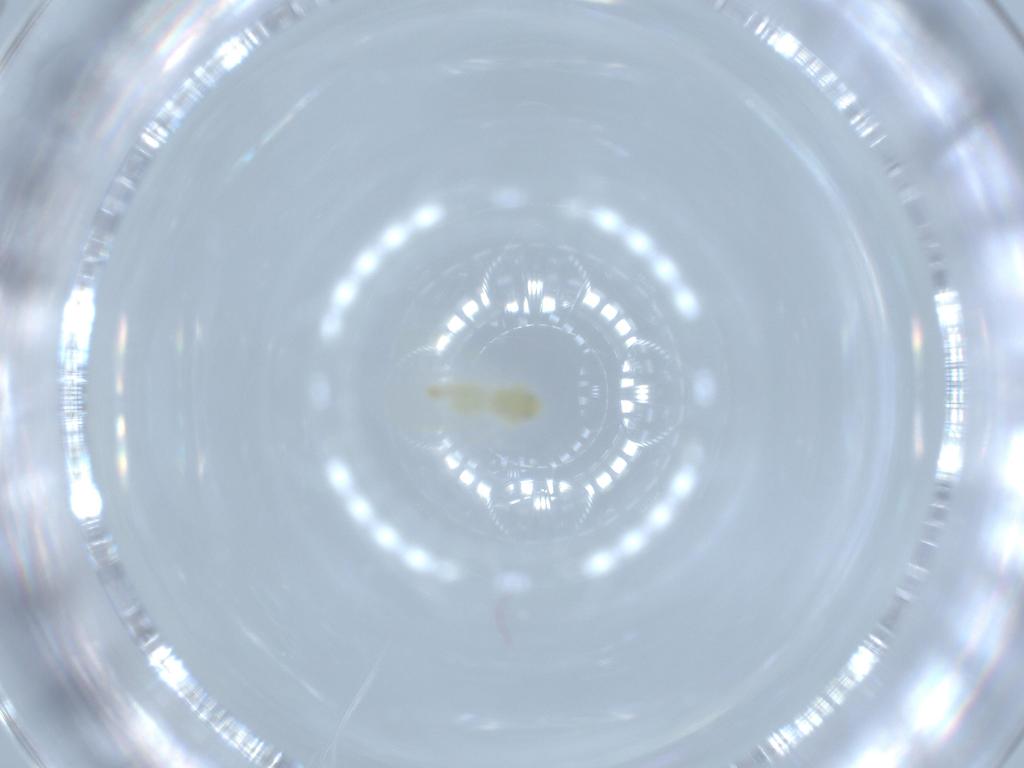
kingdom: Animalia
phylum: Arthropoda
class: Insecta
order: Hemiptera
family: Aleyrodidae
